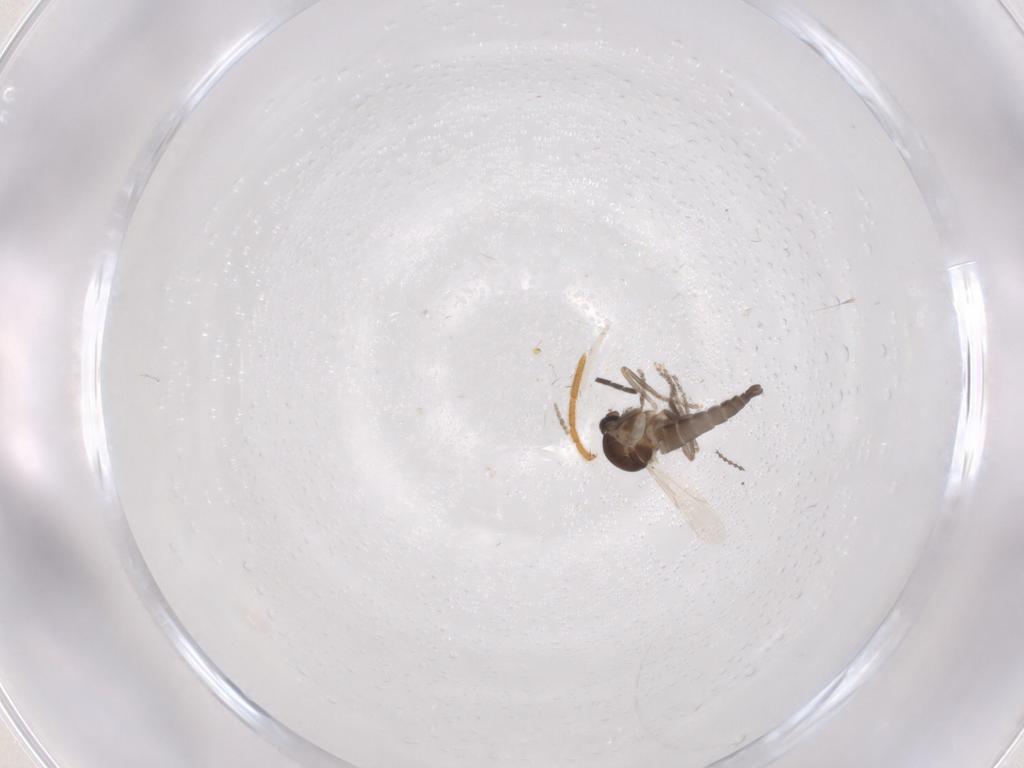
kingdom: Animalia
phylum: Arthropoda
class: Insecta
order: Diptera
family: Ceratopogonidae
